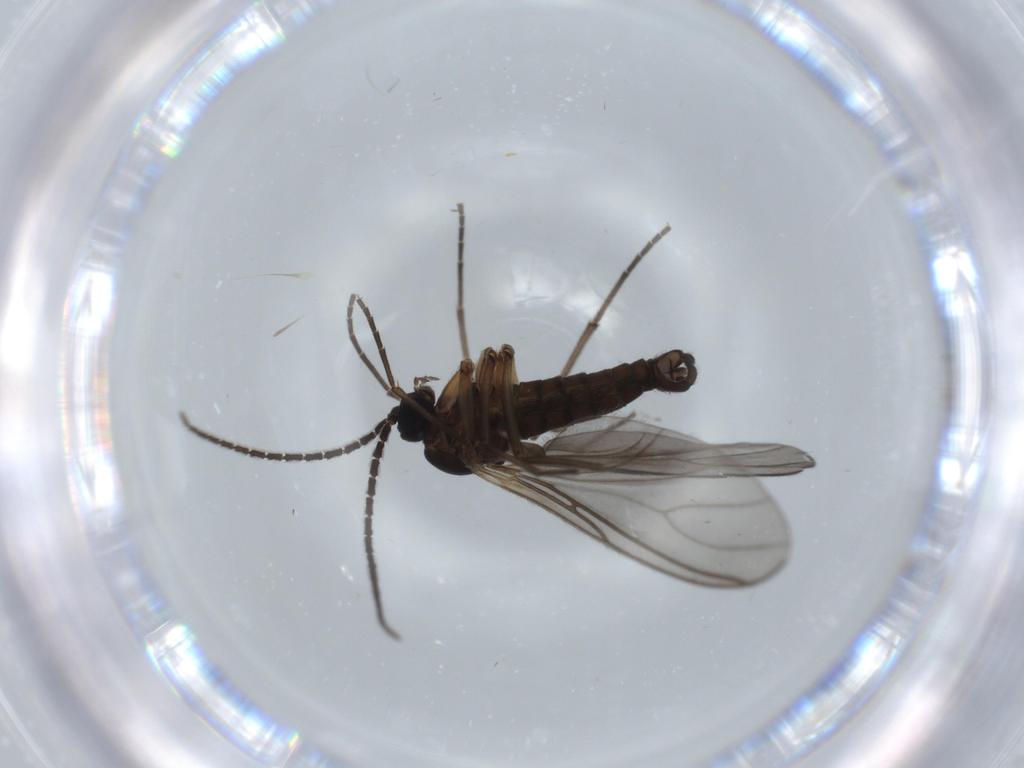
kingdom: Animalia
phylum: Arthropoda
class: Insecta
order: Diptera
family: Sciaridae
